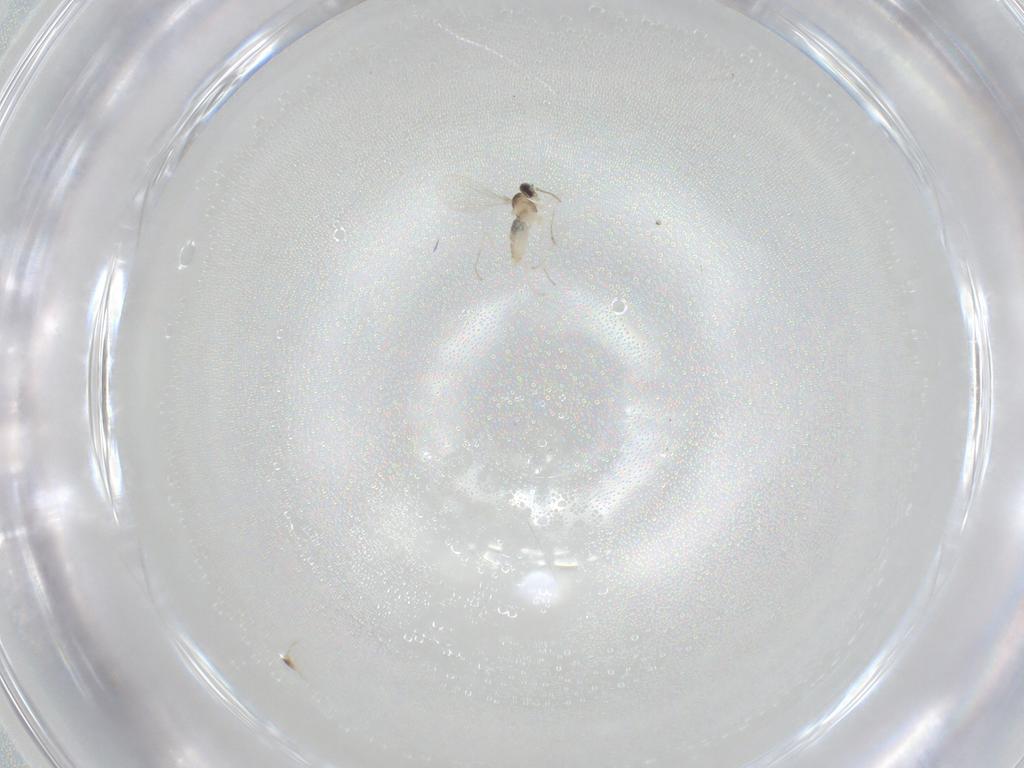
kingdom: Animalia
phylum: Arthropoda
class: Insecta
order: Diptera
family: Cecidomyiidae
